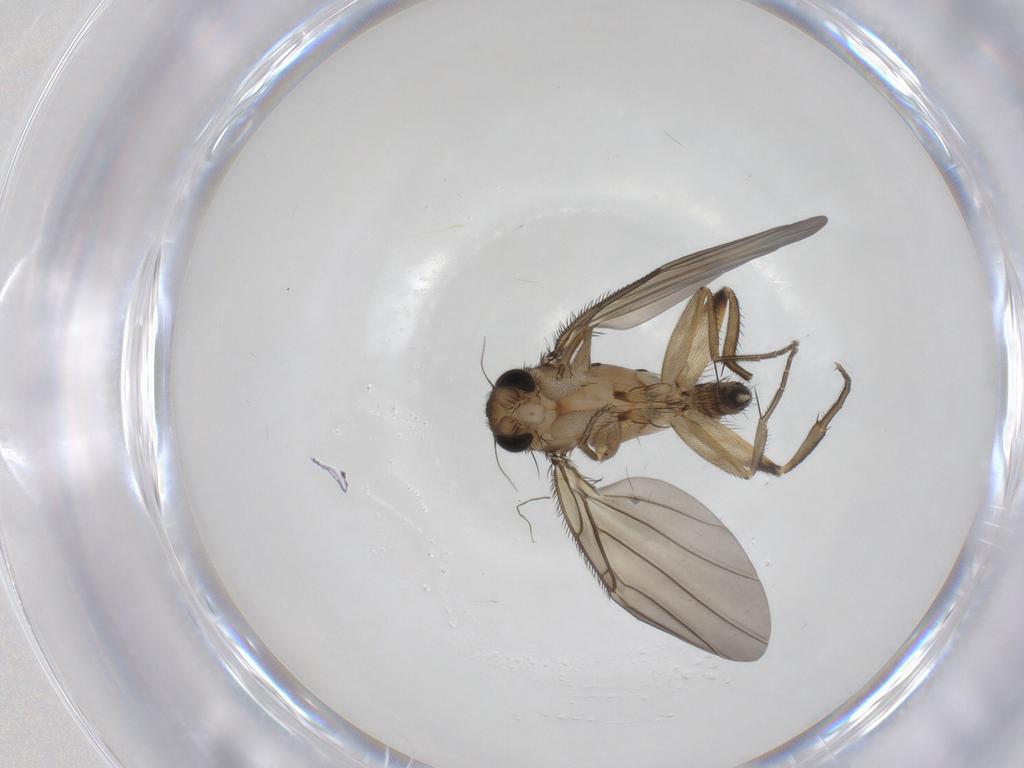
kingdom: Animalia
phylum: Arthropoda
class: Insecta
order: Diptera
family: Phoridae
